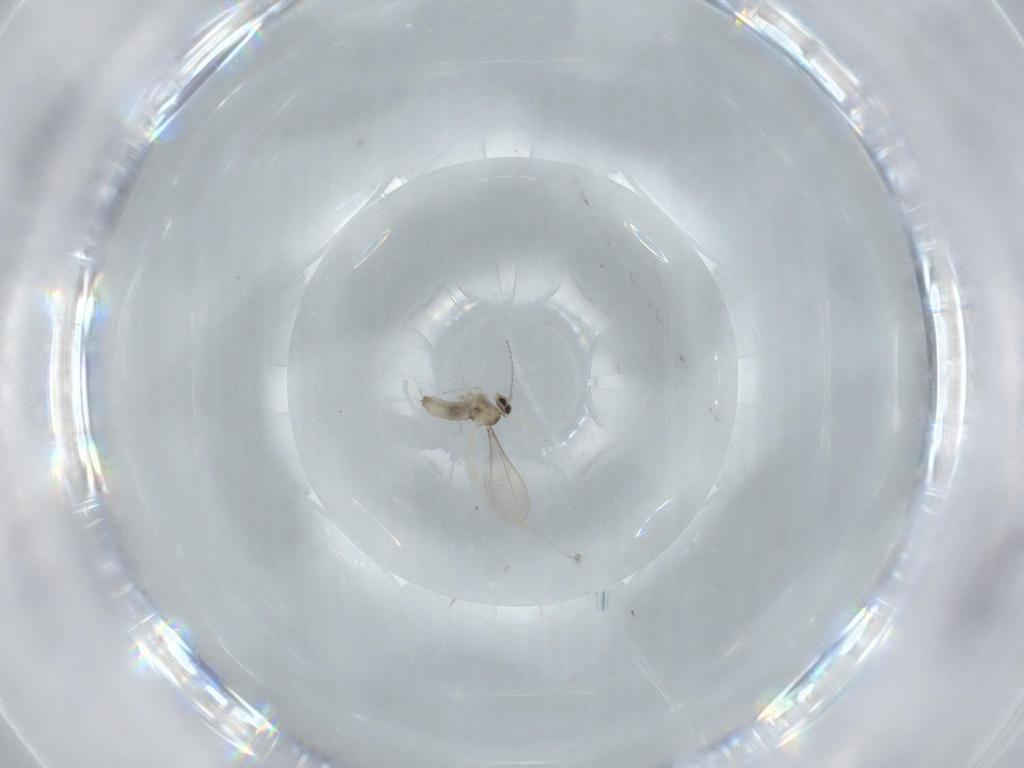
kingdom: Animalia
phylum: Arthropoda
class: Insecta
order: Diptera
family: Cecidomyiidae
